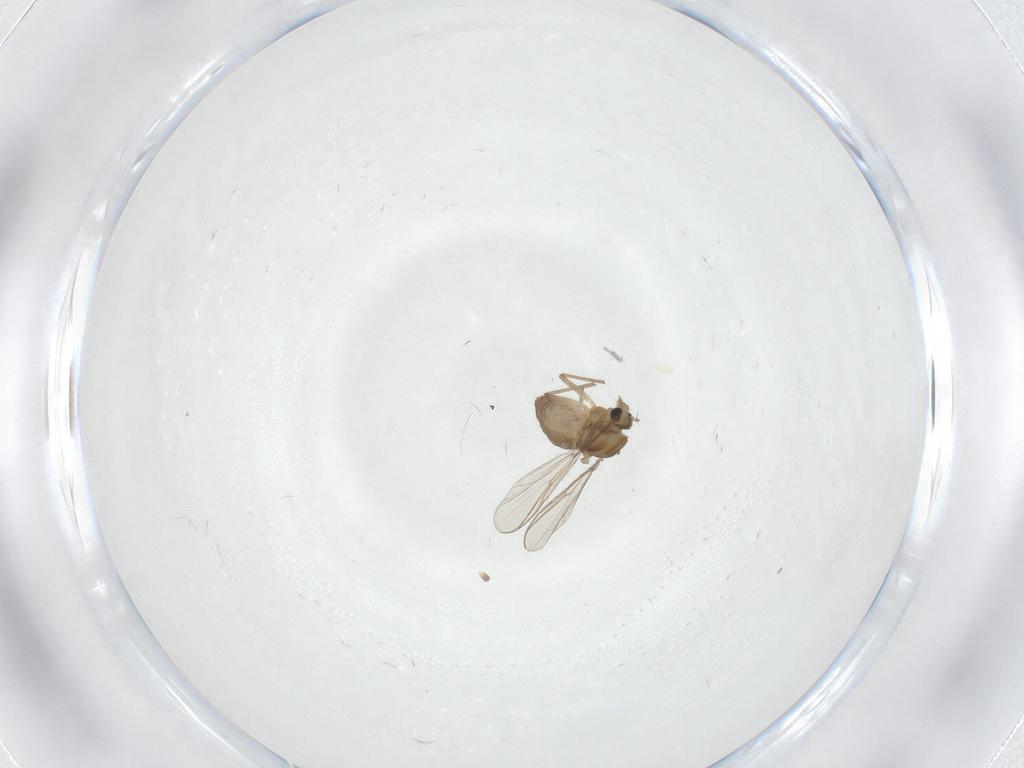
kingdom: Animalia
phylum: Arthropoda
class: Insecta
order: Diptera
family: Chironomidae
